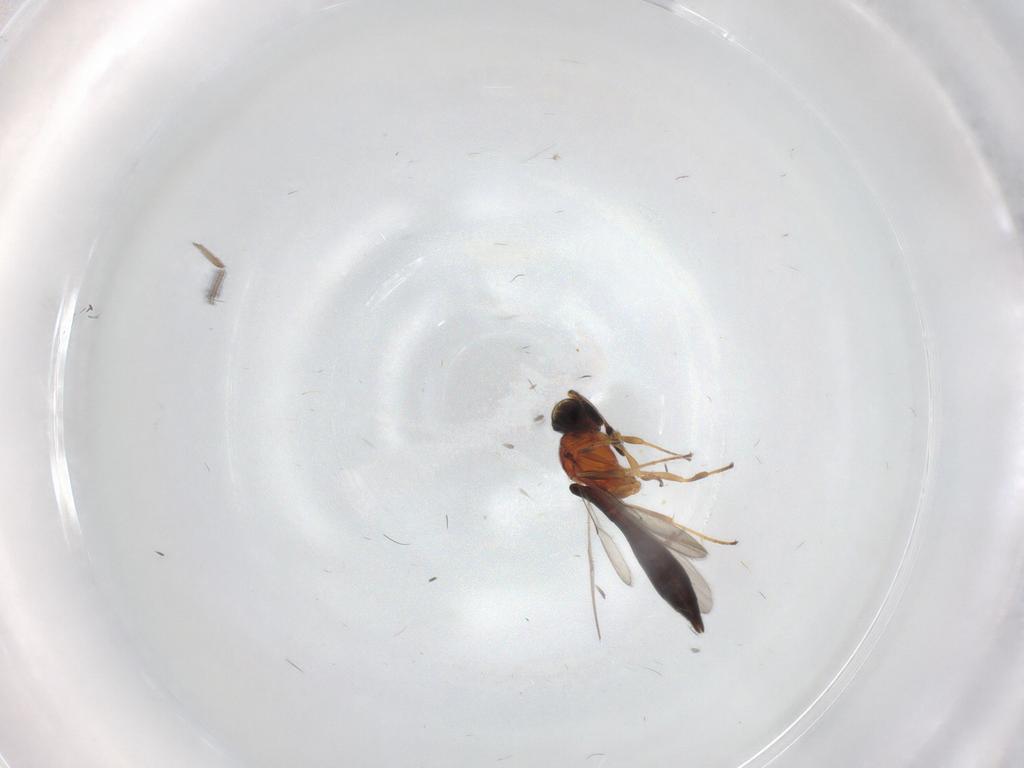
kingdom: Animalia
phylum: Arthropoda
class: Insecta
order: Hymenoptera
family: Scelionidae
